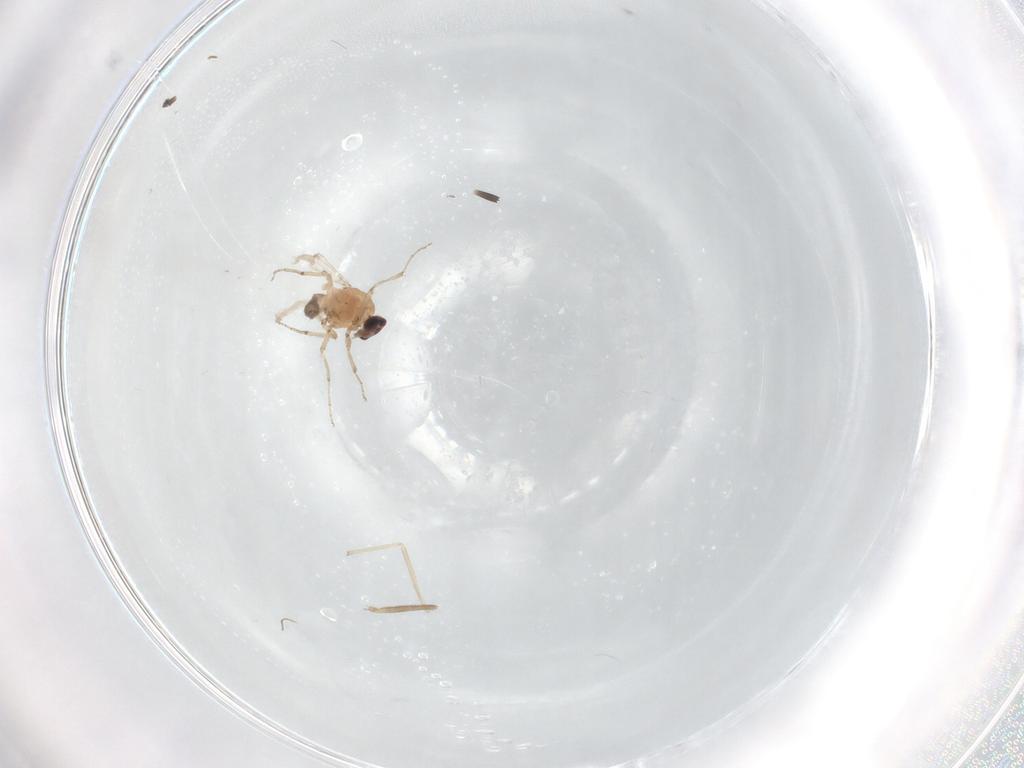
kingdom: Animalia
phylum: Arthropoda
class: Insecta
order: Diptera
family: Ceratopogonidae
